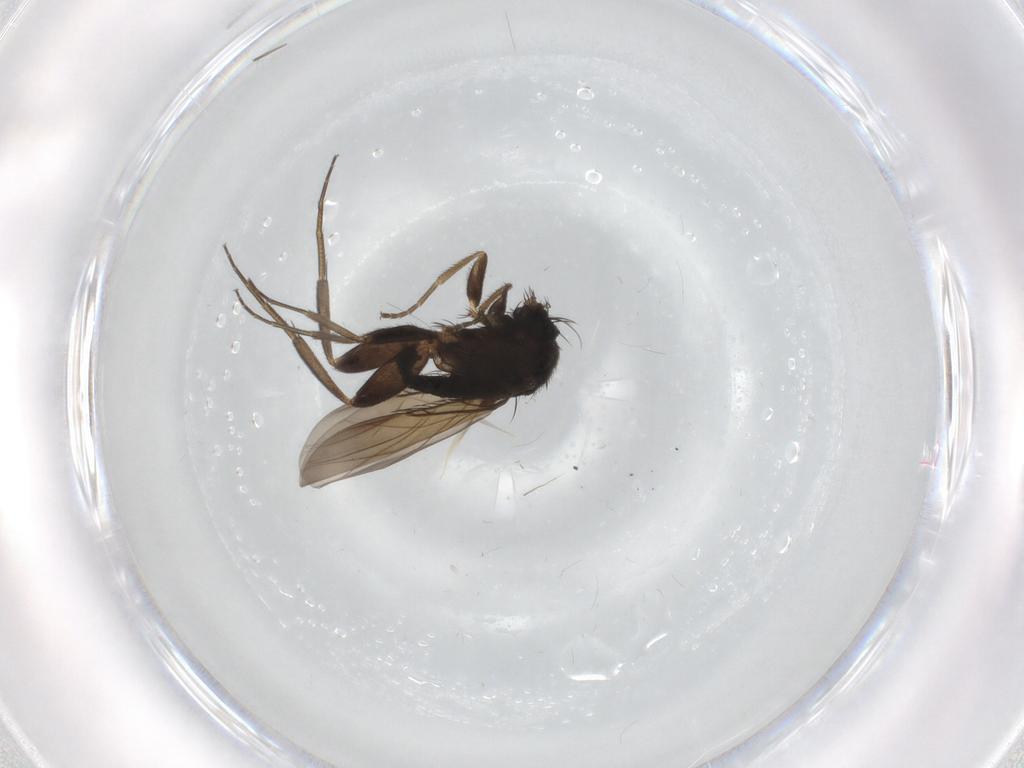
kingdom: Animalia
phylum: Arthropoda
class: Insecta
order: Diptera
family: Phoridae
